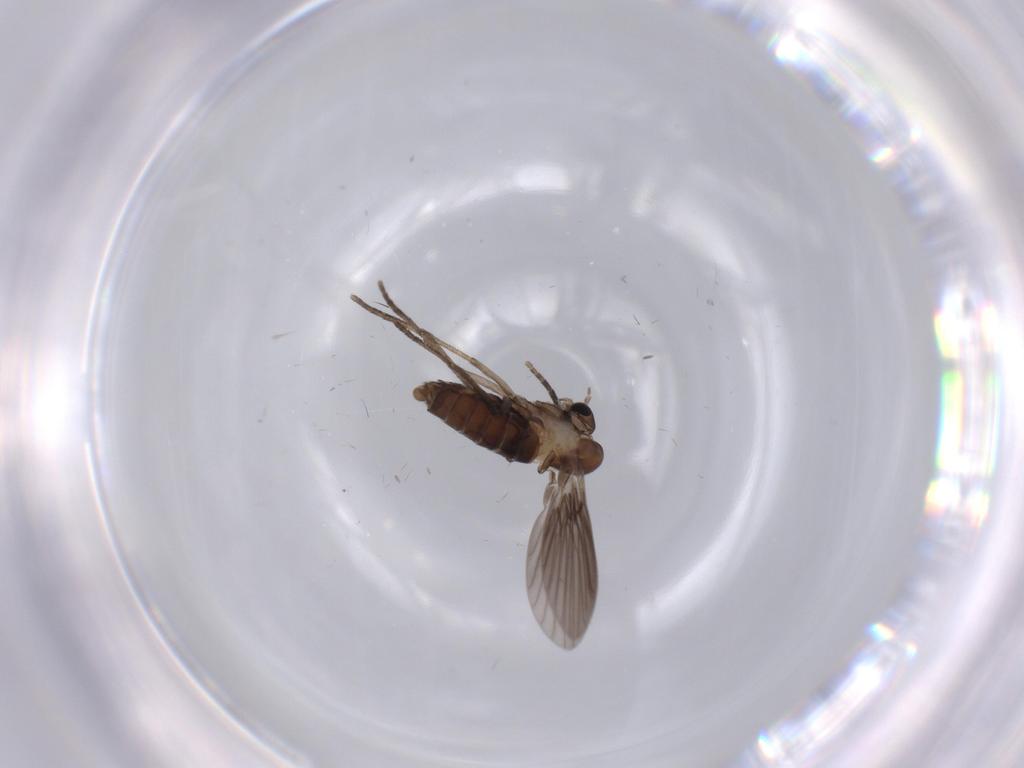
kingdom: Animalia
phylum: Arthropoda
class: Insecta
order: Diptera
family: Psychodidae
